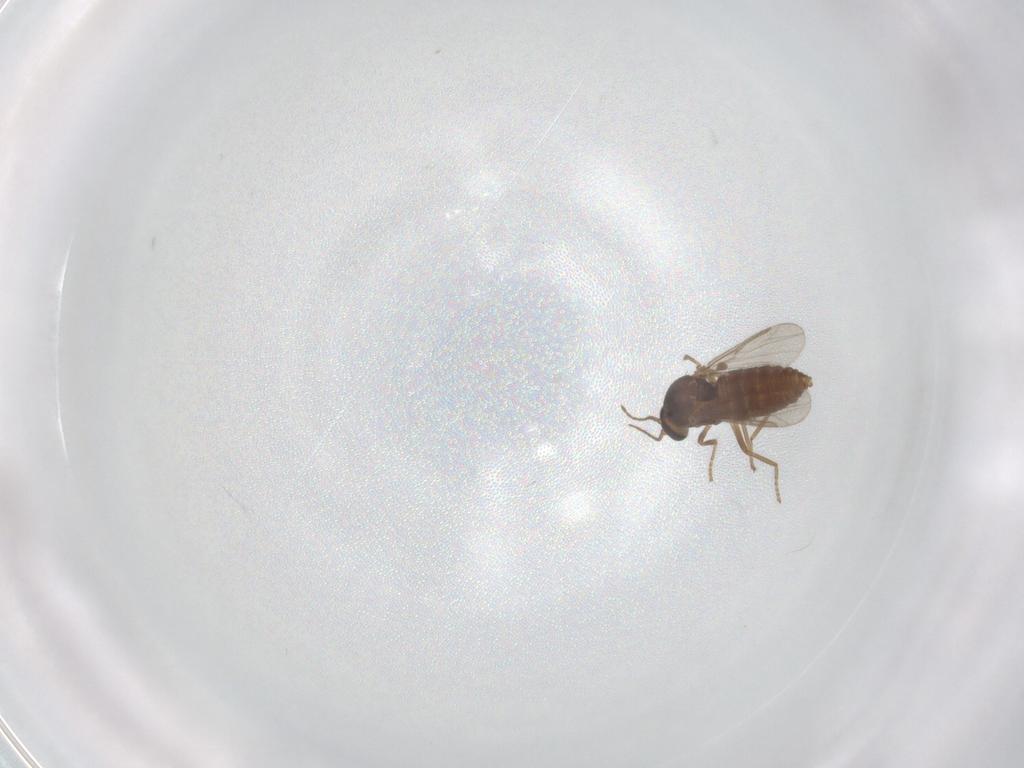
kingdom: Animalia
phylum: Arthropoda
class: Insecta
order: Diptera
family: Ceratopogonidae
